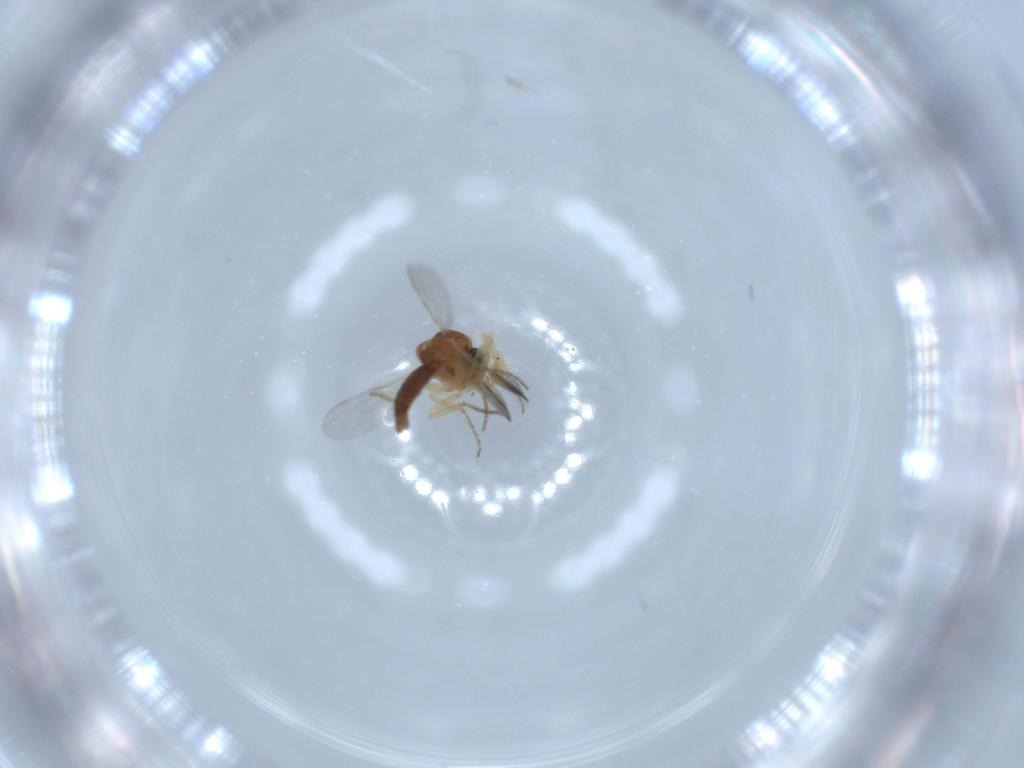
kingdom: Animalia
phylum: Arthropoda
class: Insecta
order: Diptera
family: Ceratopogonidae
